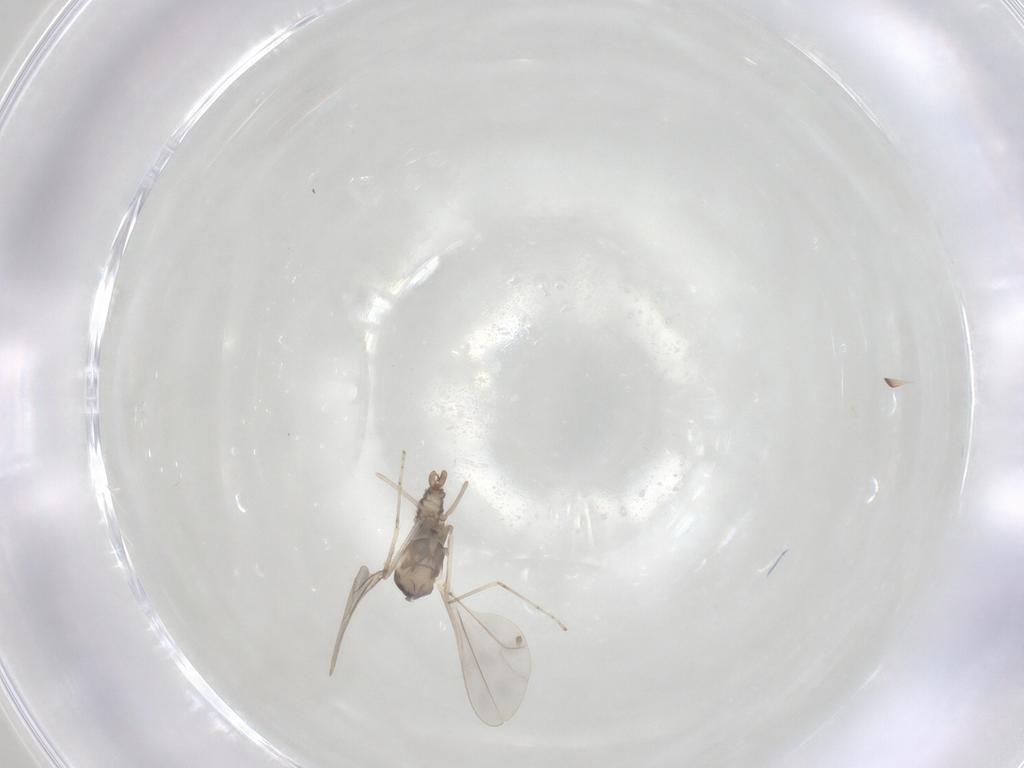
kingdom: Animalia
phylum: Arthropoda
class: Insecta
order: Diptera
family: Cecidomyiidae
